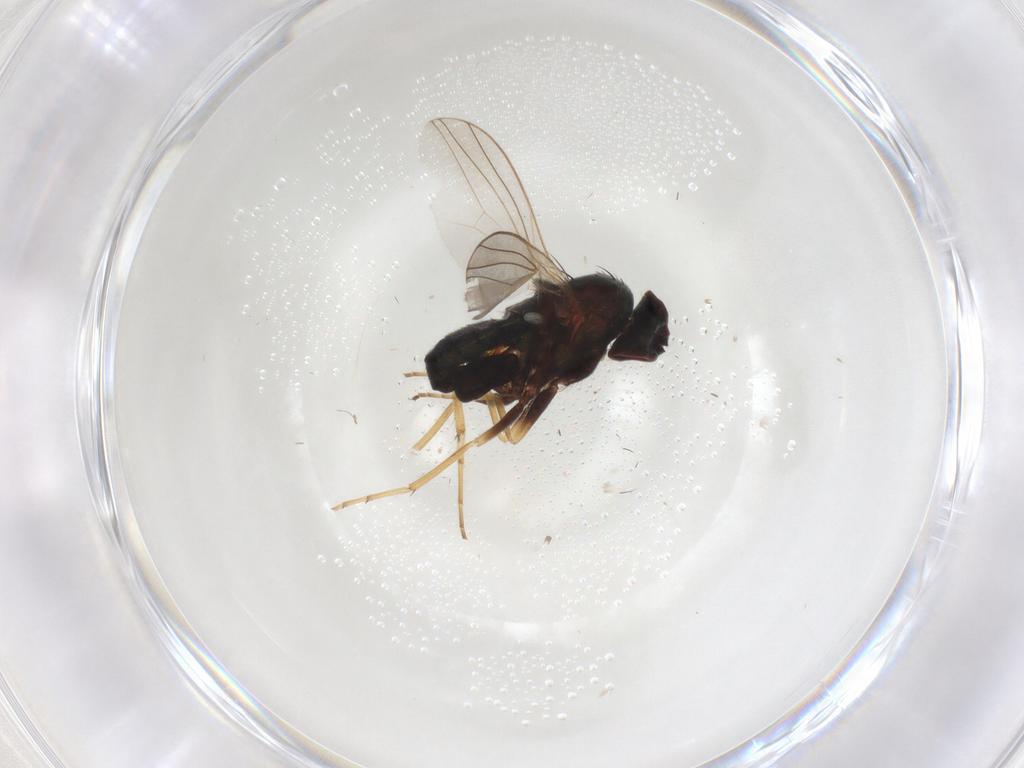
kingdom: Animalia
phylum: Arthropoda
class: Insecta
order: Diptera
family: Dolichopodidae
